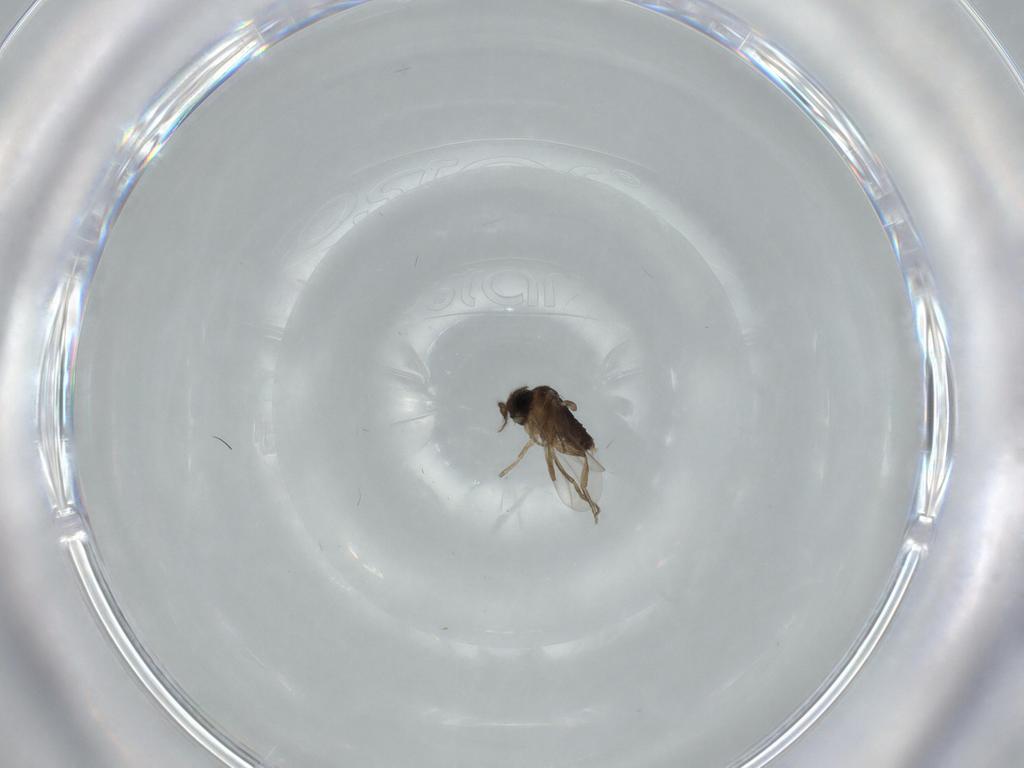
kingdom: Animalia
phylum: Arthropoda
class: Insecta
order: Diptera
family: Phoridae
